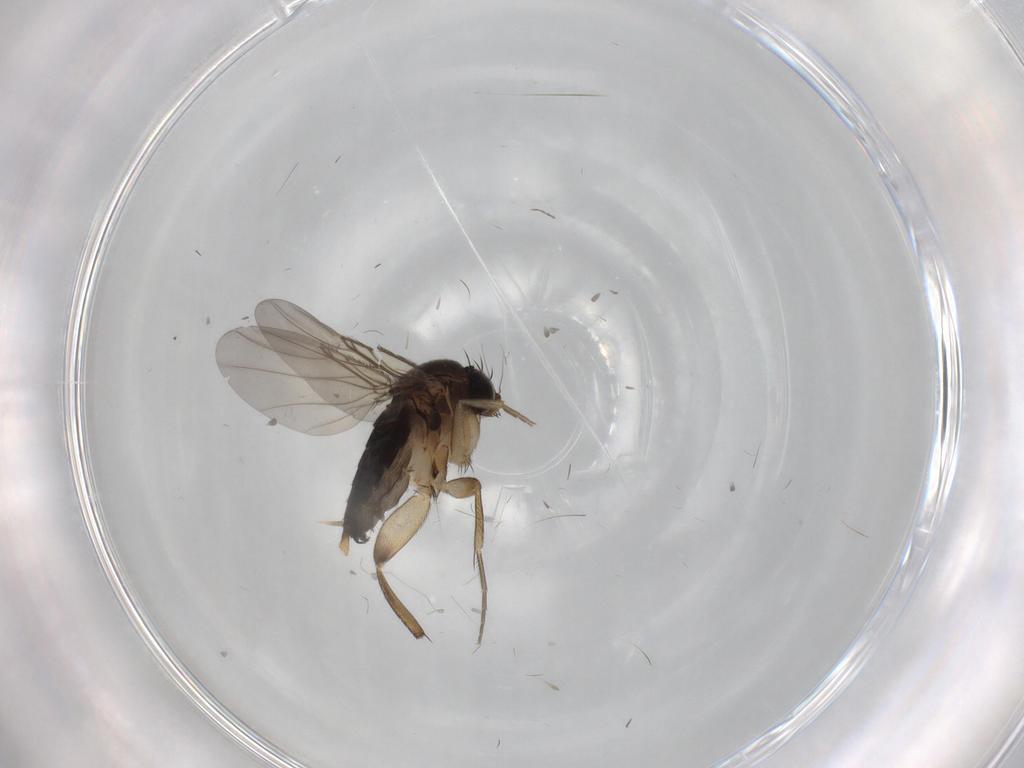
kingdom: Animalia
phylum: Arthropoda
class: Insecta
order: Diptera
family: Phoridae
